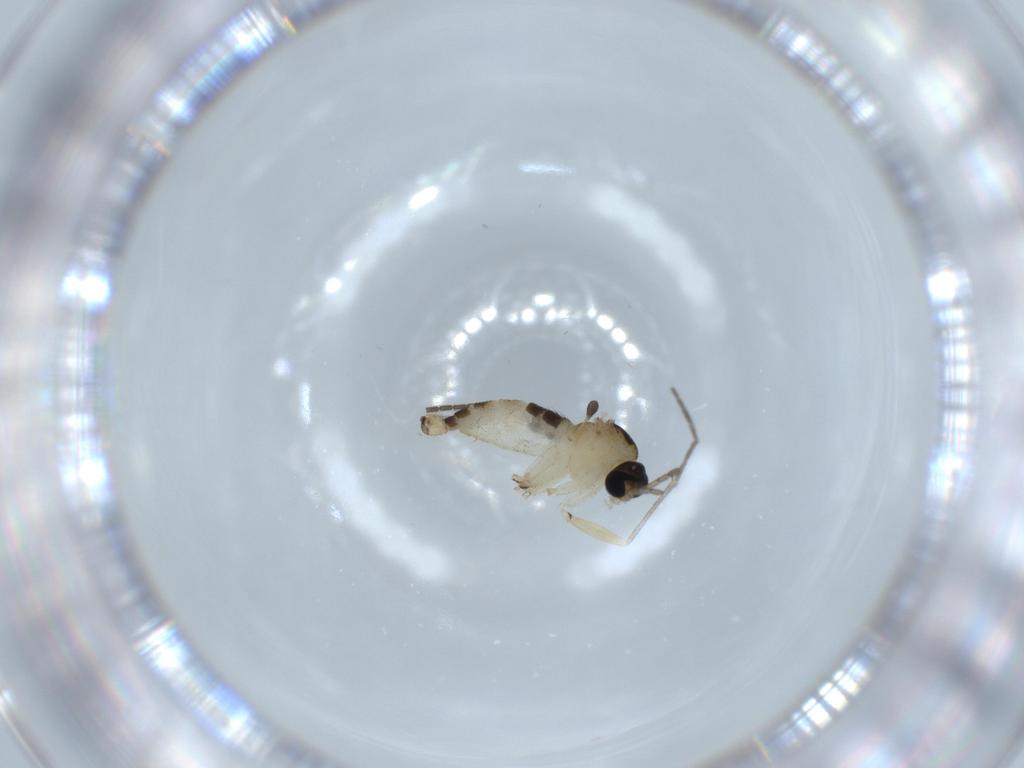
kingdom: Animalia
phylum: Arthropoda
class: Insecta
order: Diptera
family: Sciaridae
